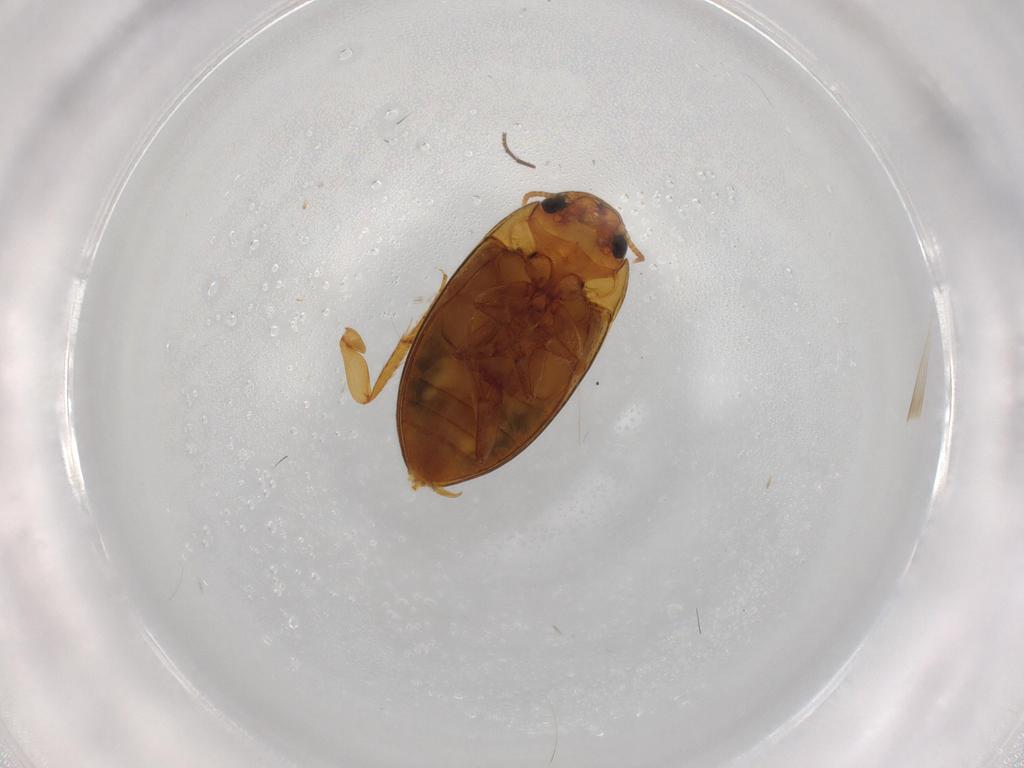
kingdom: Animalia
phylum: Arthropoda
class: Insecta
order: Coleoptera
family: Noteridae
